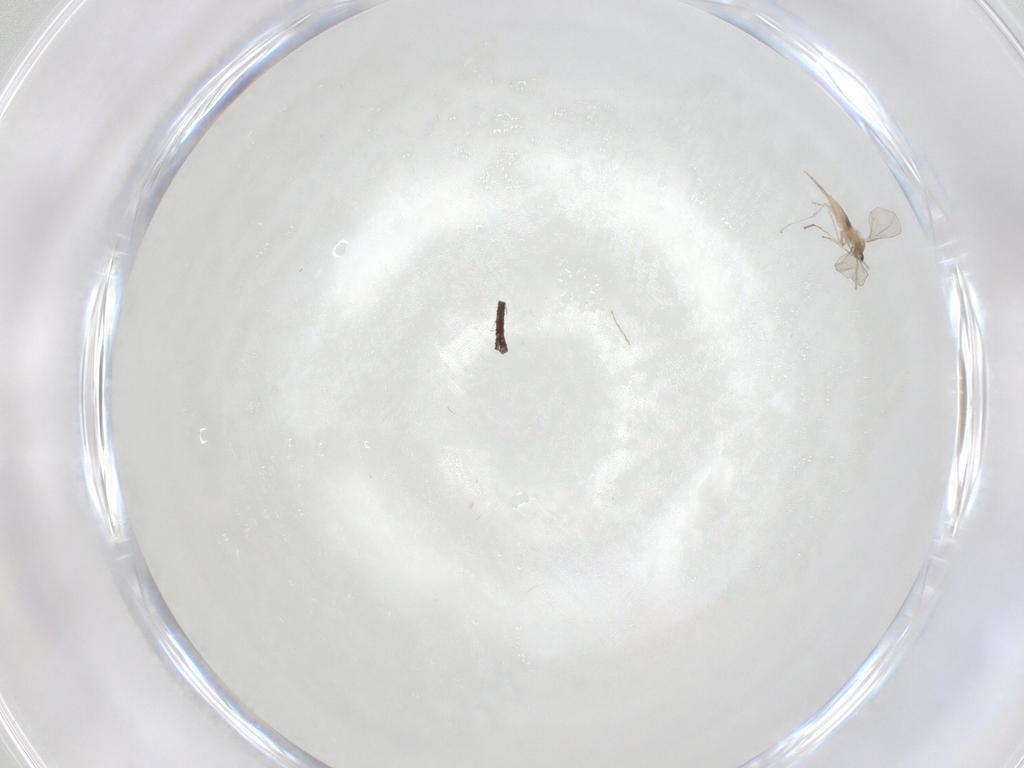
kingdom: Animalia
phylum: Arthropoda
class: Insecta
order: Diptera
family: Cecidomyiidae
